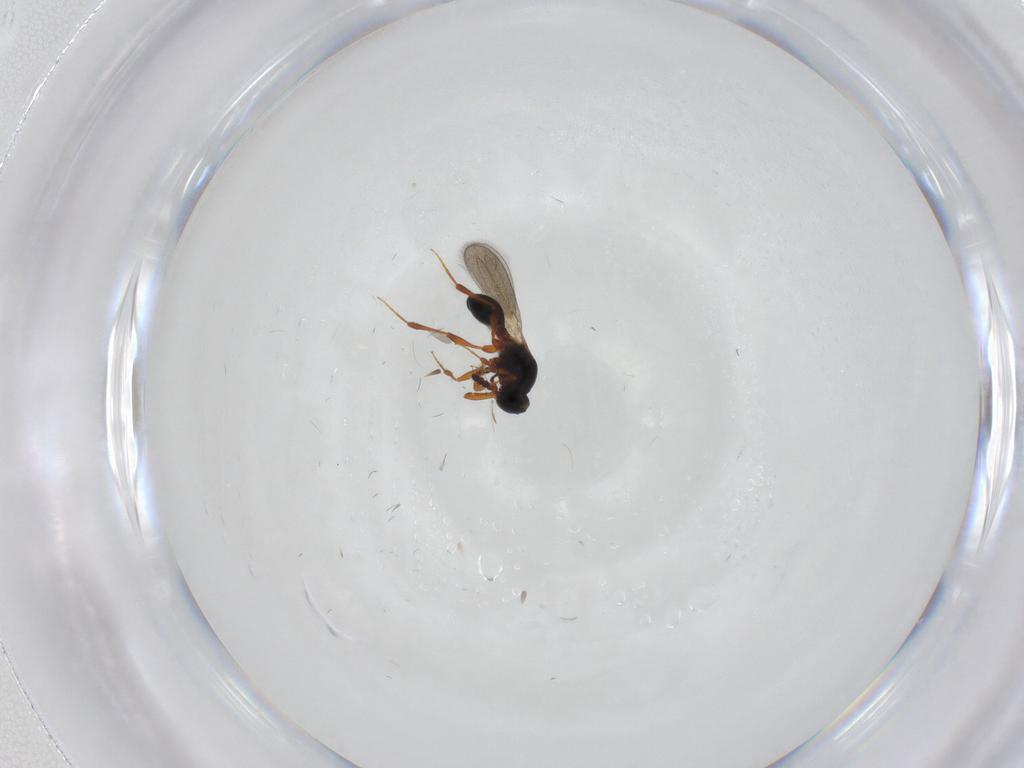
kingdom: Animalia
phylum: Arthropoda
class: Insecta
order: Hymenoptera
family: Platygastridae
